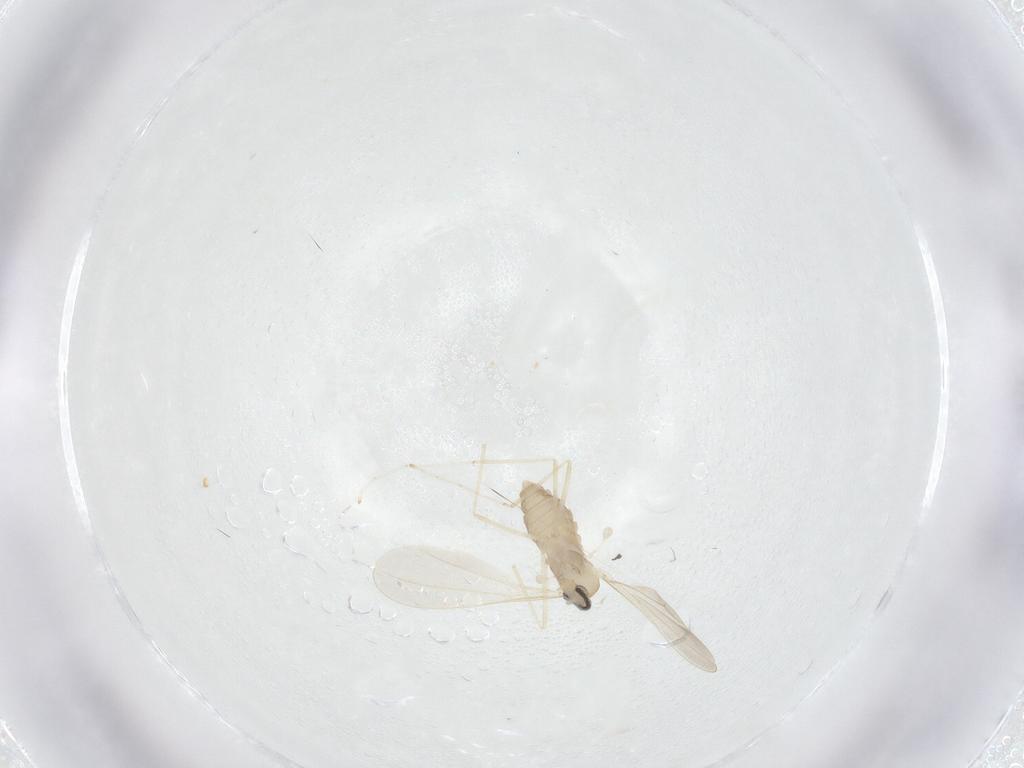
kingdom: Animalia
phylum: Arthropoda
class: Insecta
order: Diptera
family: Cecidomyiidae
